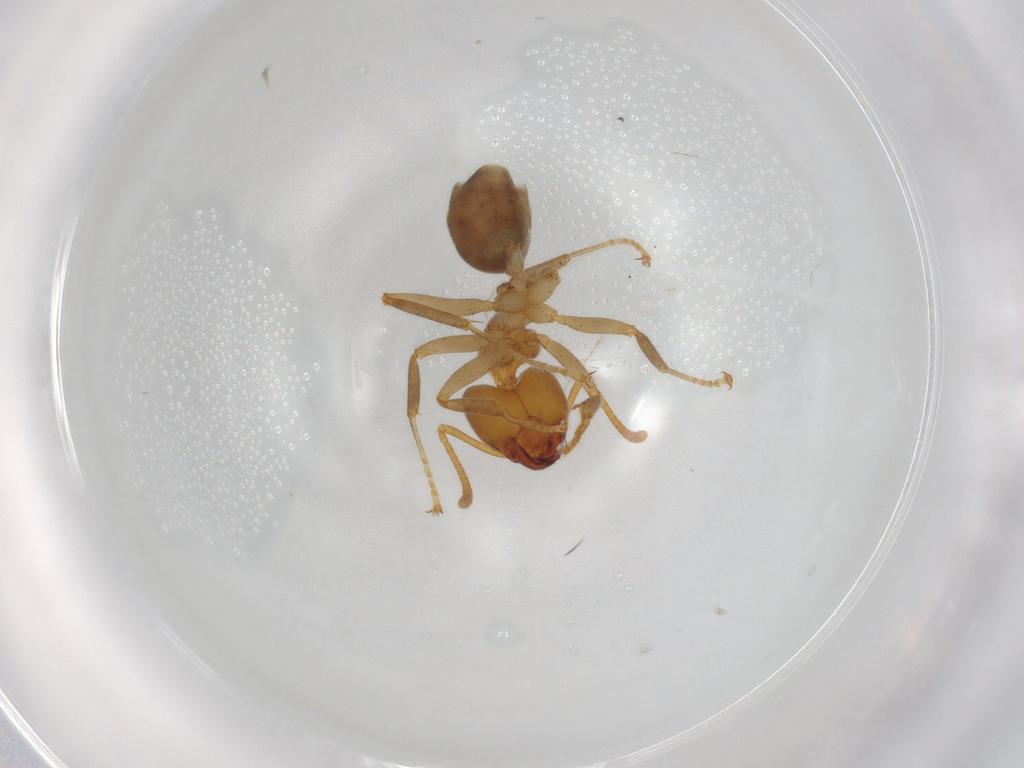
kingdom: Animalia
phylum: Arthropoda
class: Insecta
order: Hymenoptera
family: Formicidae
